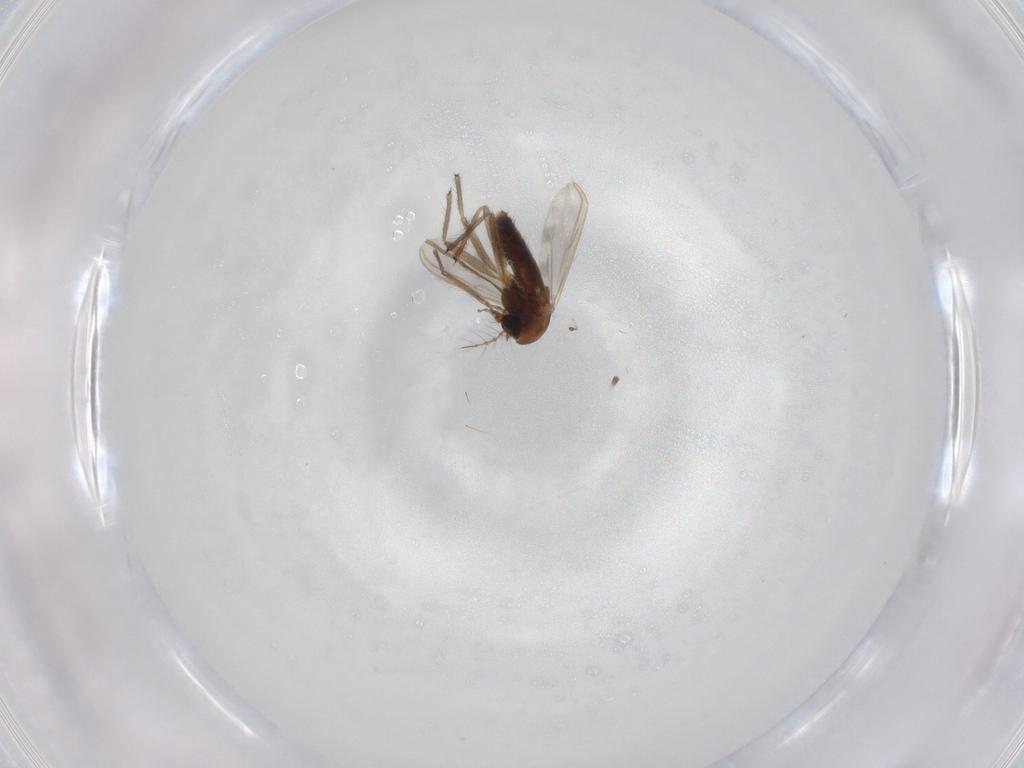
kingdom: Animalia
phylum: Arthropoda
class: Insecta
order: Diptera
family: Chironomidae
